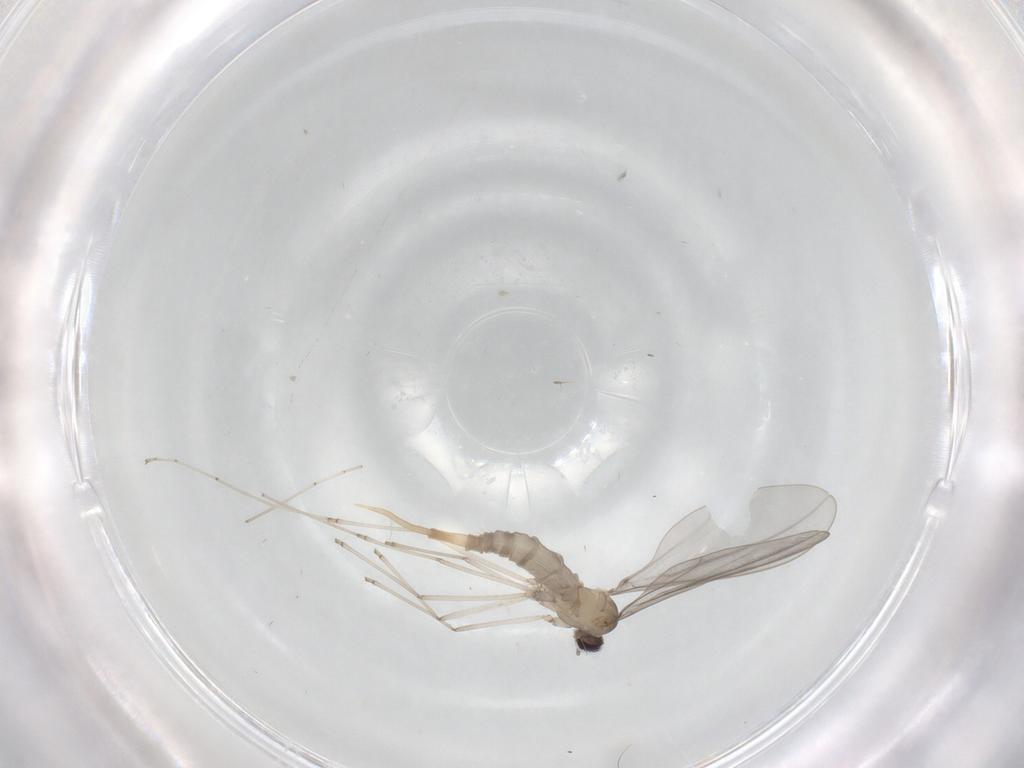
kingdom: Animalia
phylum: Arthropoda
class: Insecta
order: Diptera
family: Cecidomyiidae
